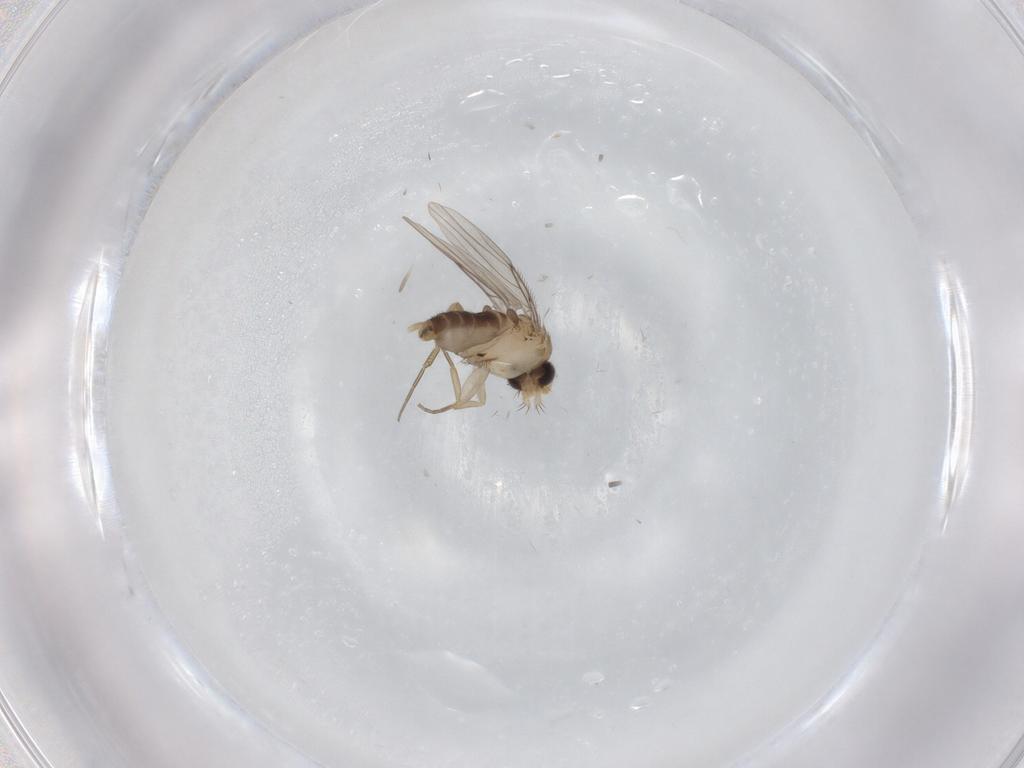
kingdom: Animalia
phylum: Arthropoda
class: Insecta
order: Diptera
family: Phoridae
